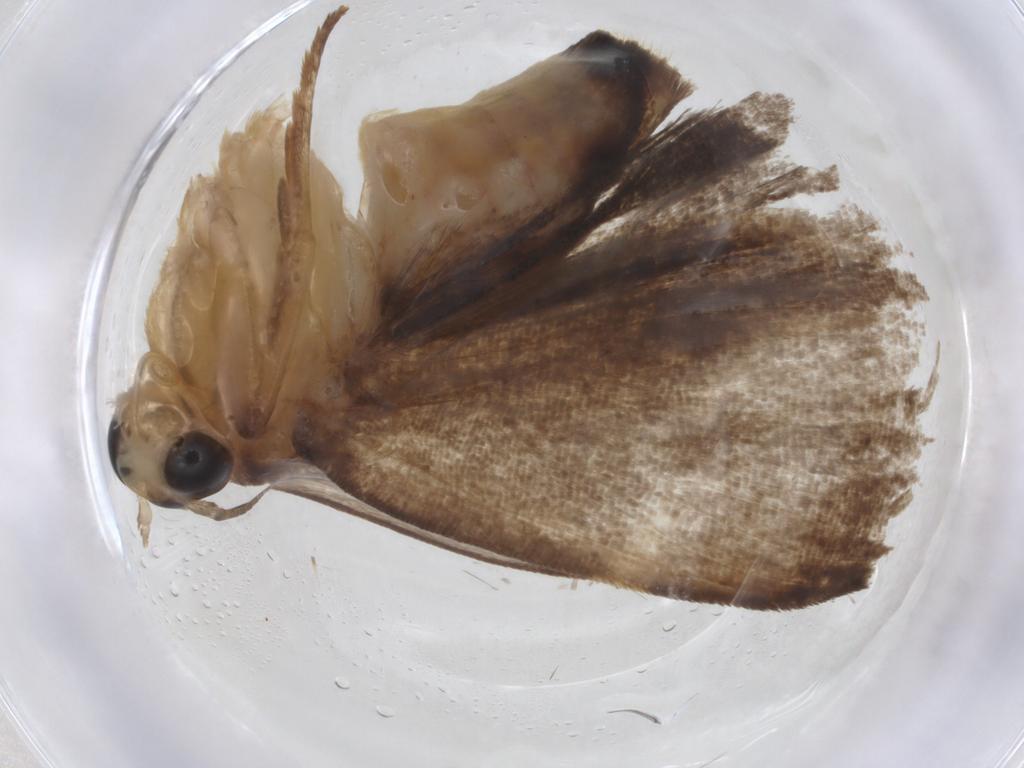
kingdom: Animalia
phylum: Arthropoda
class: Insecta
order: Lepidoptera
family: Immidae
